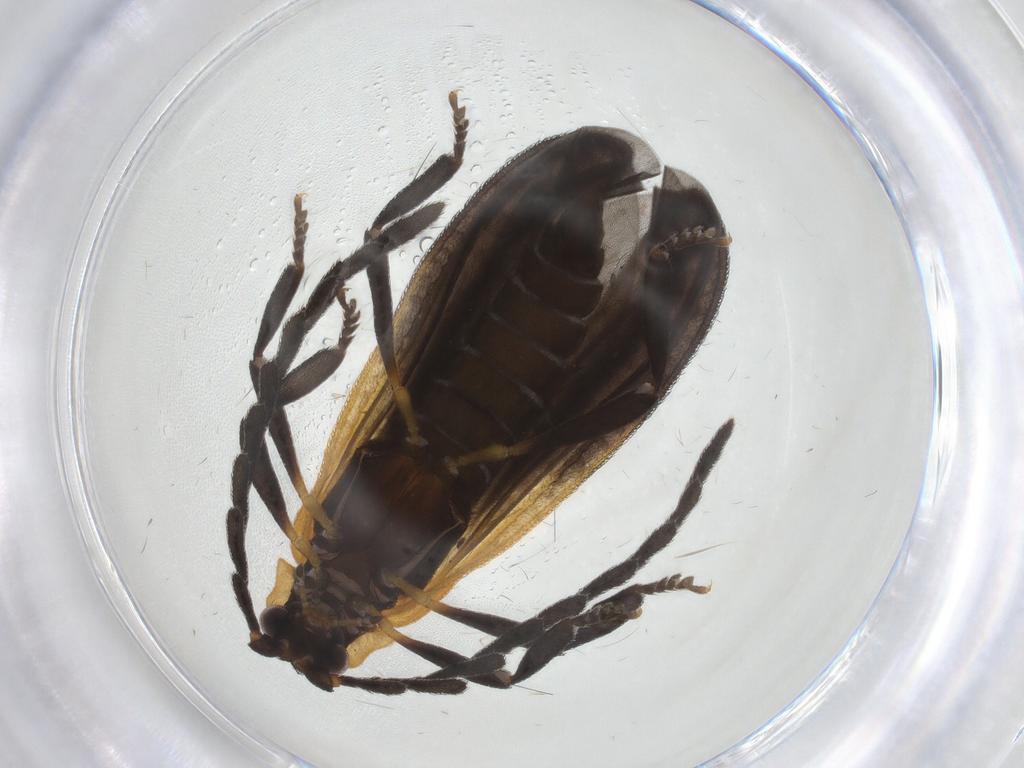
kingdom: Animalia
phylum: Arthropoda
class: Insecta
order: Coleoptera
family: Lycidae
